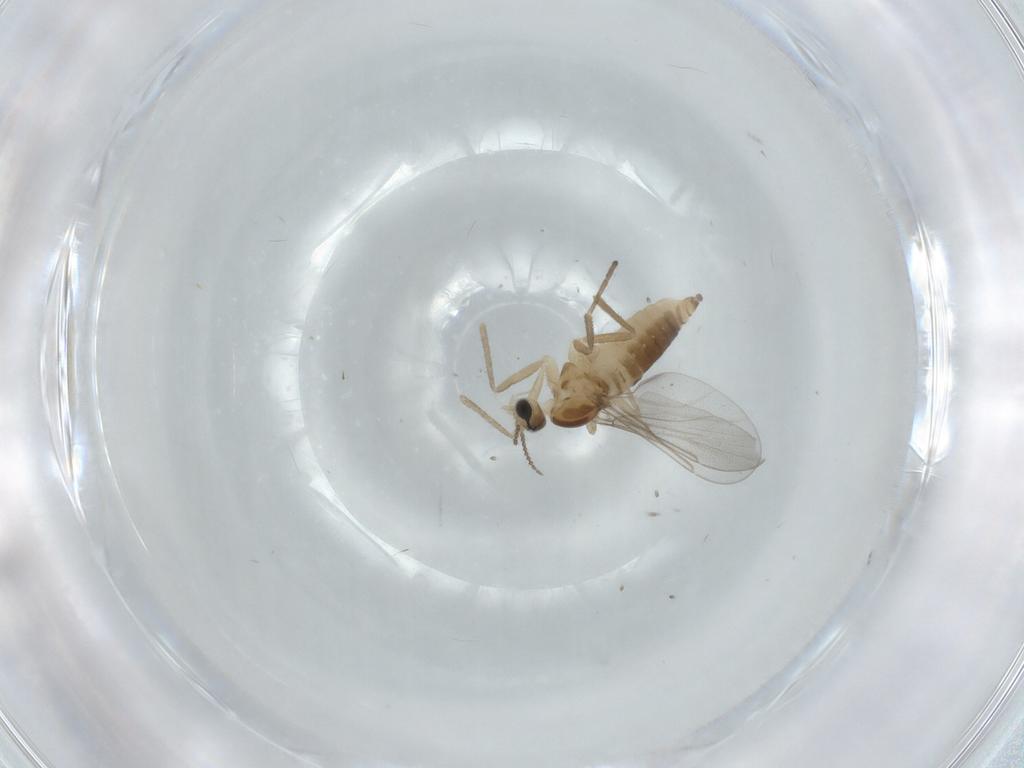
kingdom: Animalia
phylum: Arthropoda
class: Insecta
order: Diptera
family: Cecidomyiidae
